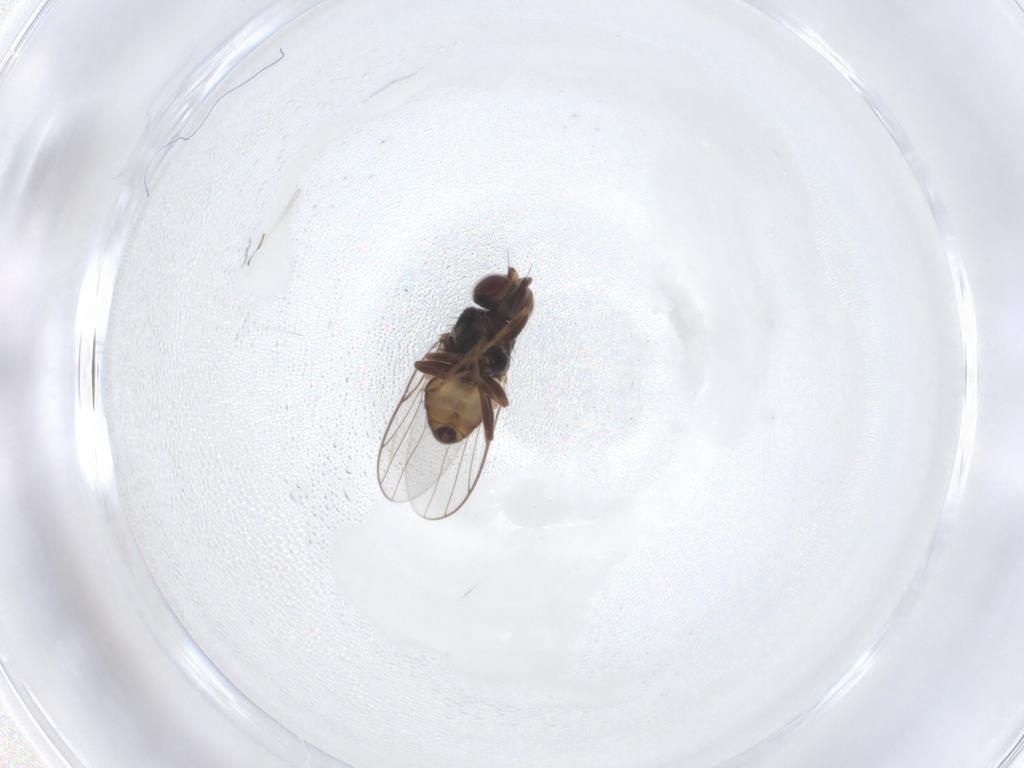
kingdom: Animalia
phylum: Arthropoda
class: Insecta
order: Diptera
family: Chloropidae
